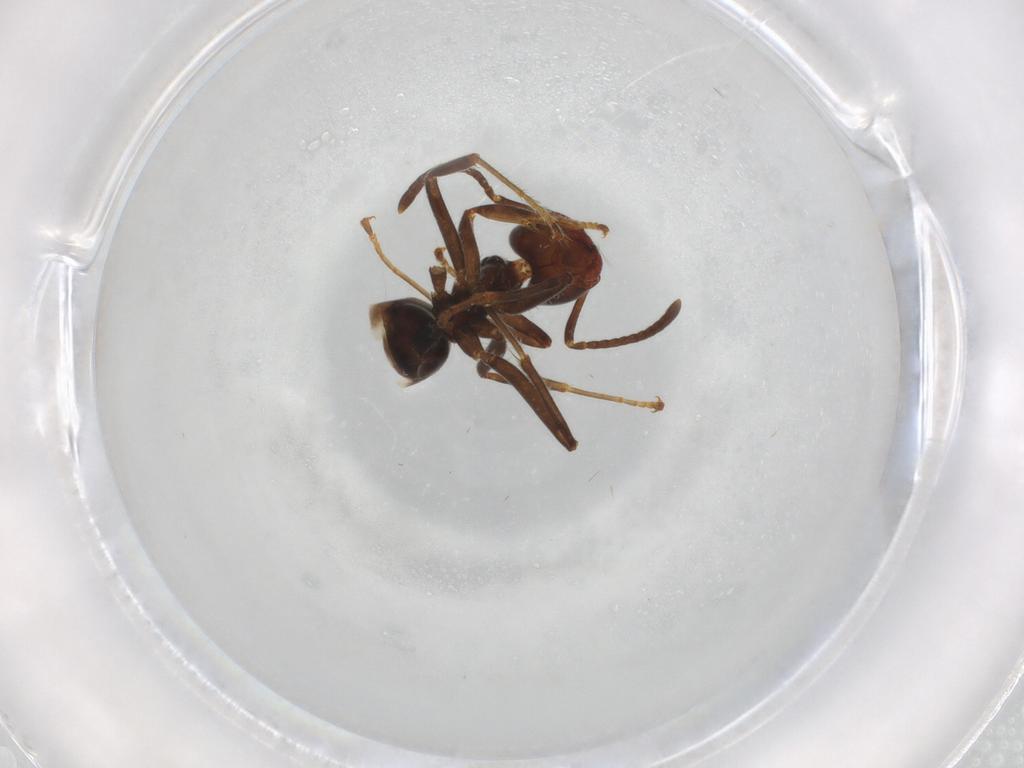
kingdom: Animalia
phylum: Arthropoda
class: Insecta
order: Hymenoptera
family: Formicidae
